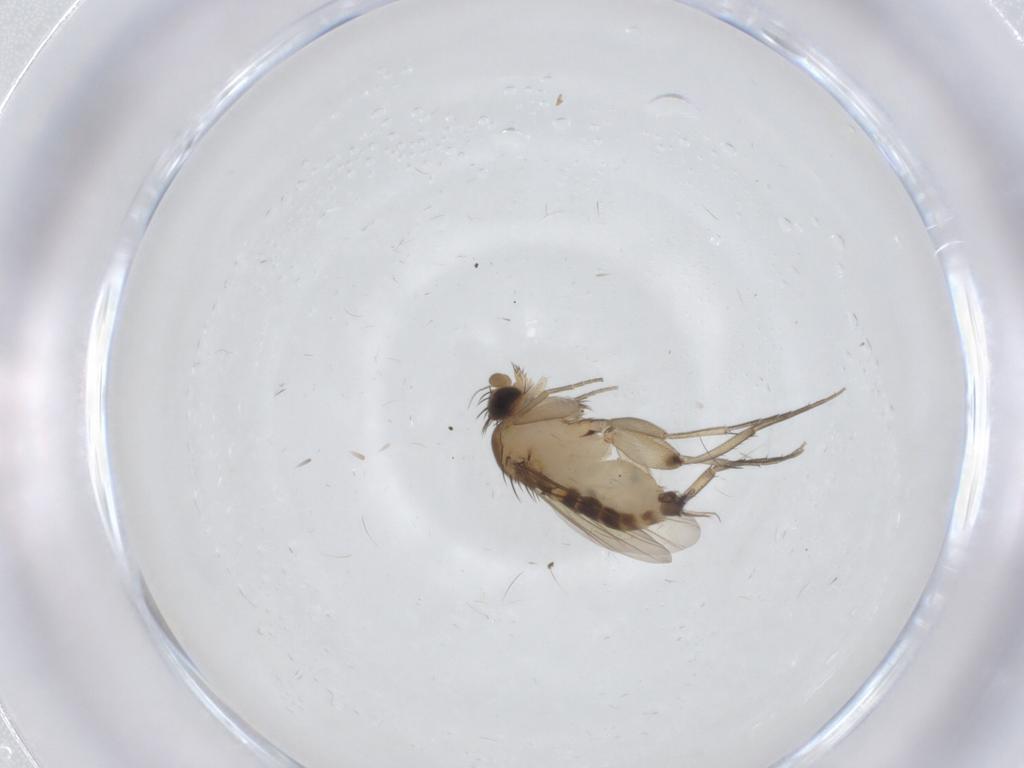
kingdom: Animalia
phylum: Arthropoda
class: Insecta
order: Diptera
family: Phoridae
